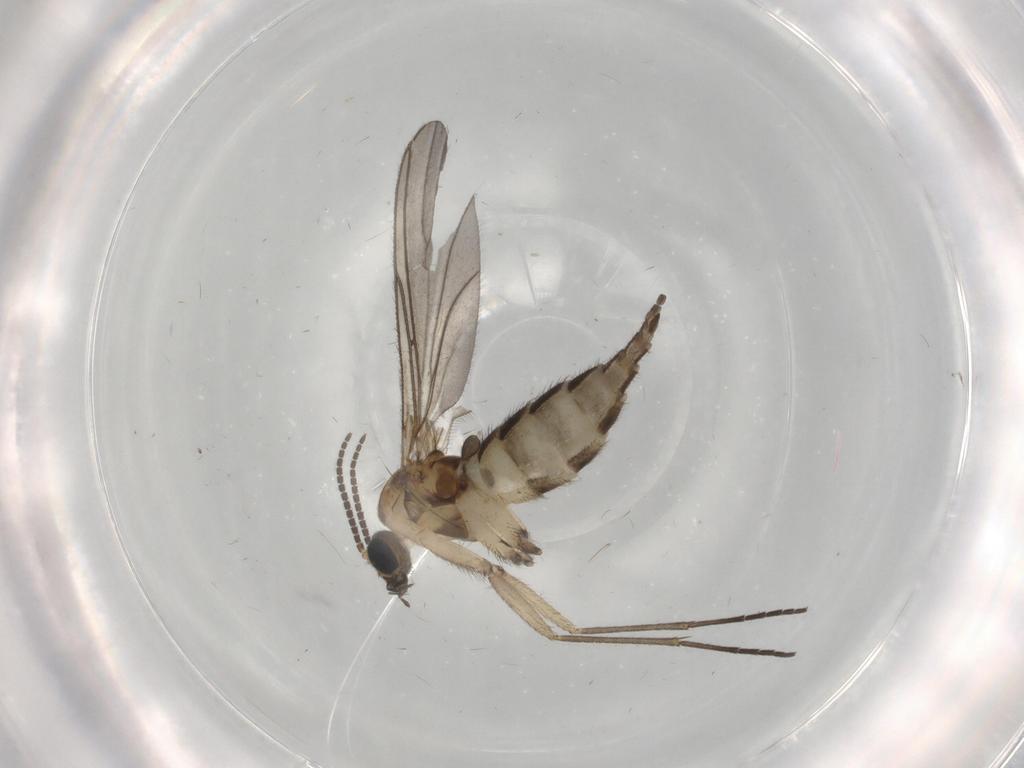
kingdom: Animalia
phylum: Arthropoda
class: Insecta
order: Diptera
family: Sciaridae
